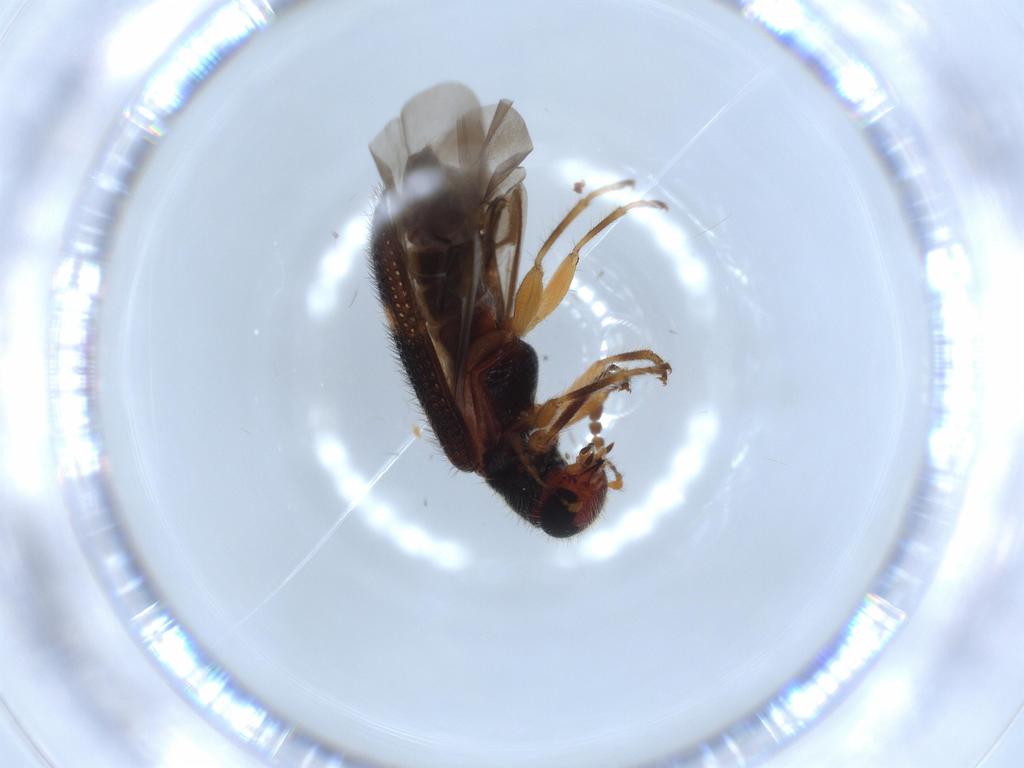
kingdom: Animalia
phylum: Arthropoda
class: Insecta
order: Coleoptera
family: Cleridae
